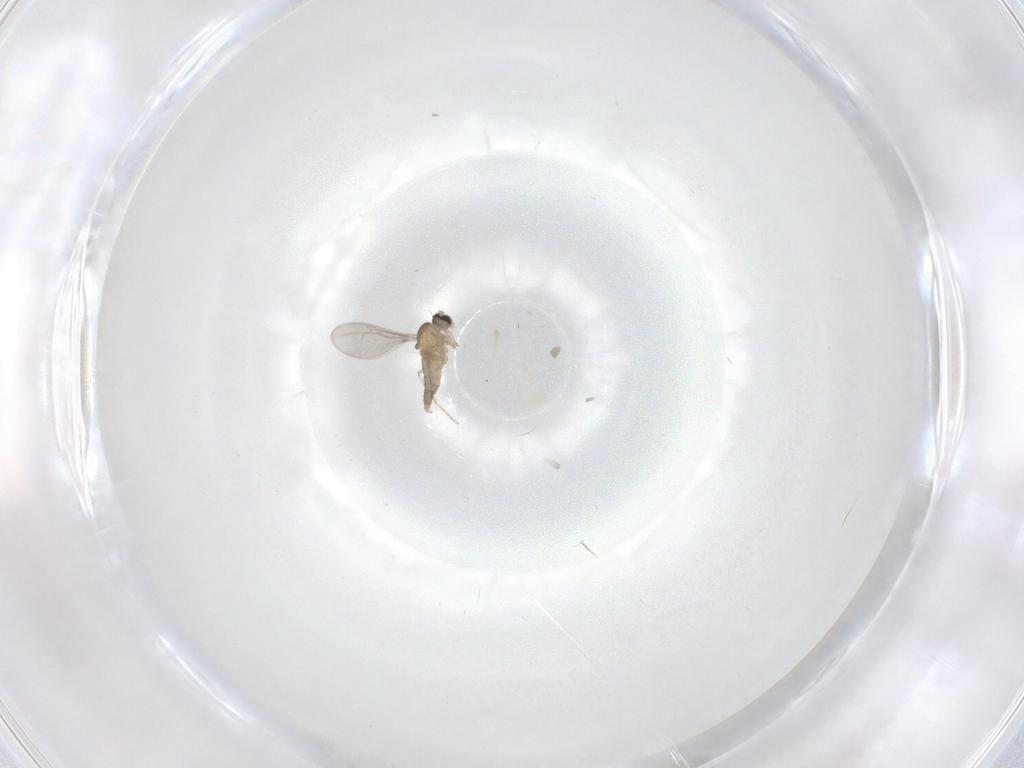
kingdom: Animalia
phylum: Arthropoda
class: Insecta
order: Diptera
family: Cecidomyiidae
